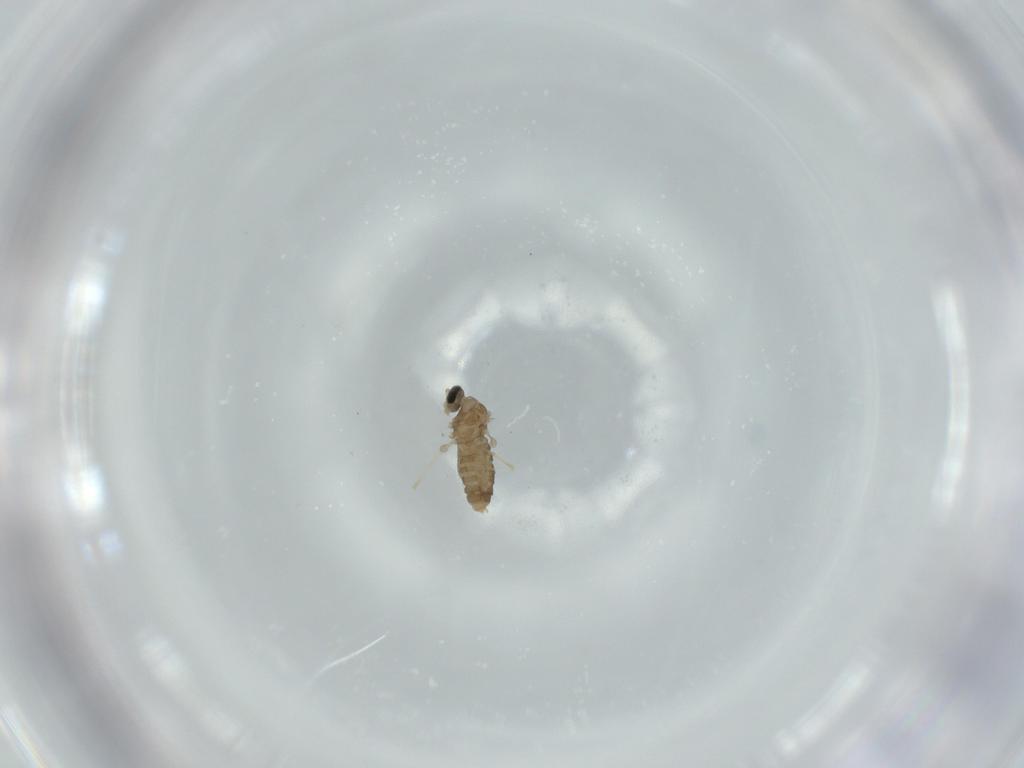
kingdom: Animalia
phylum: Arthropoda
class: Insecta
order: Diptera
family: Cecidomyiidae
